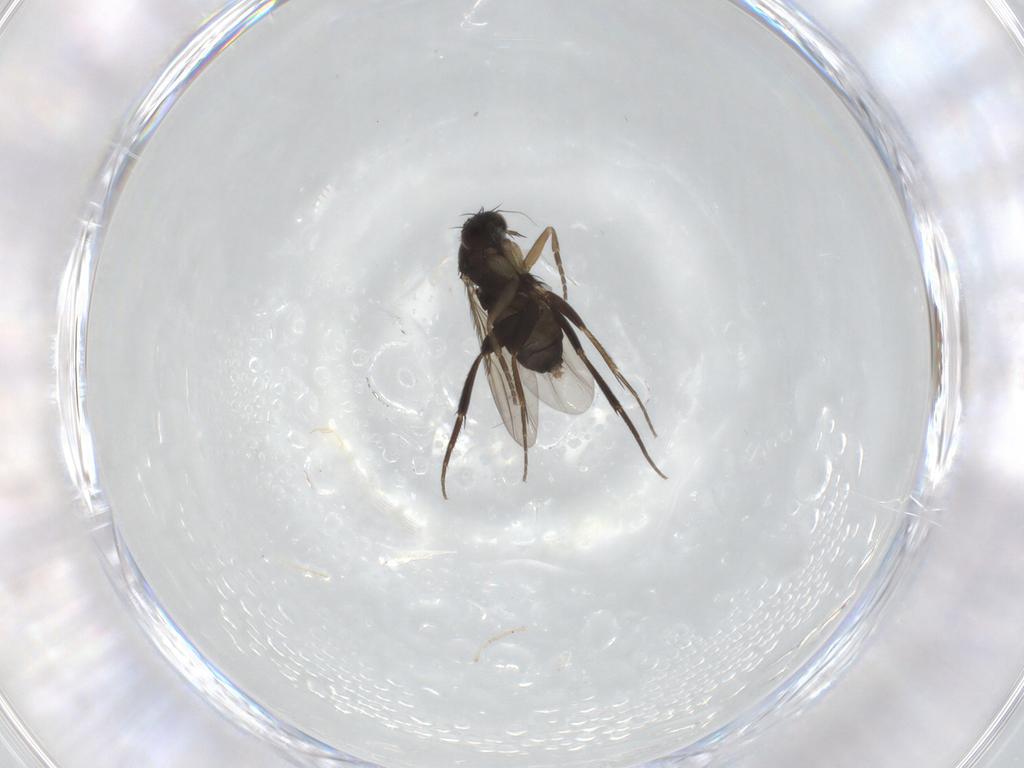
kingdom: Animalia
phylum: Arthropoda
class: Insecta
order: Diptera
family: Phoridae
